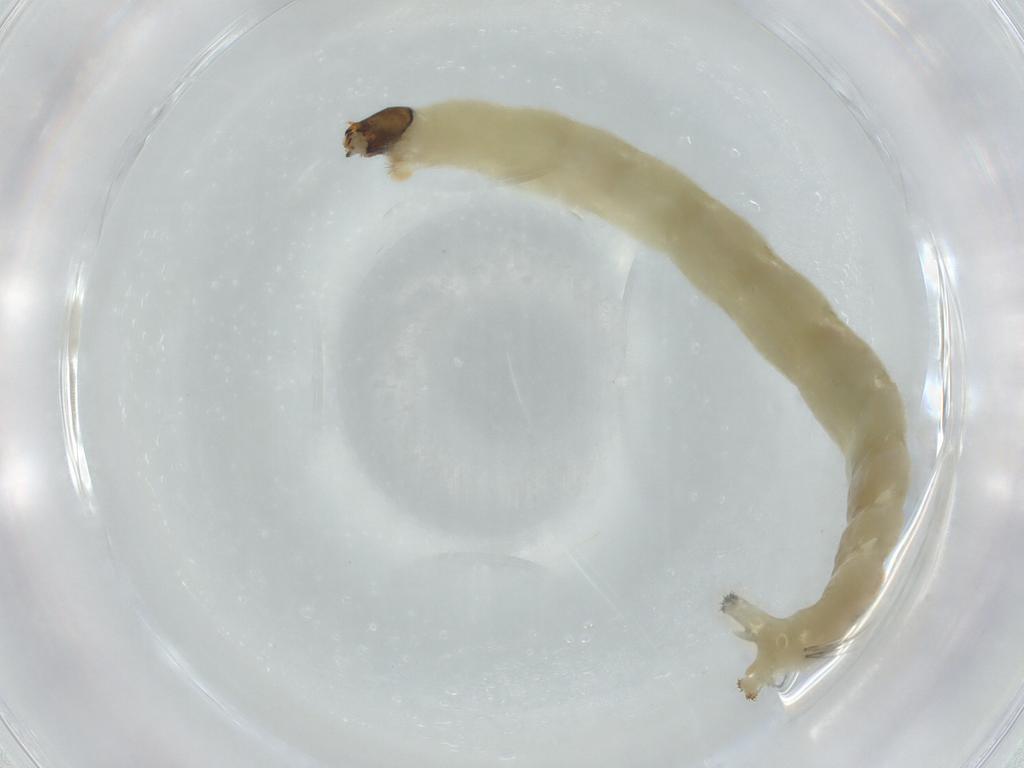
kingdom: Animalia
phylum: Arthropoda
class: Insecta
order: Diptera
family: Chironomidae
